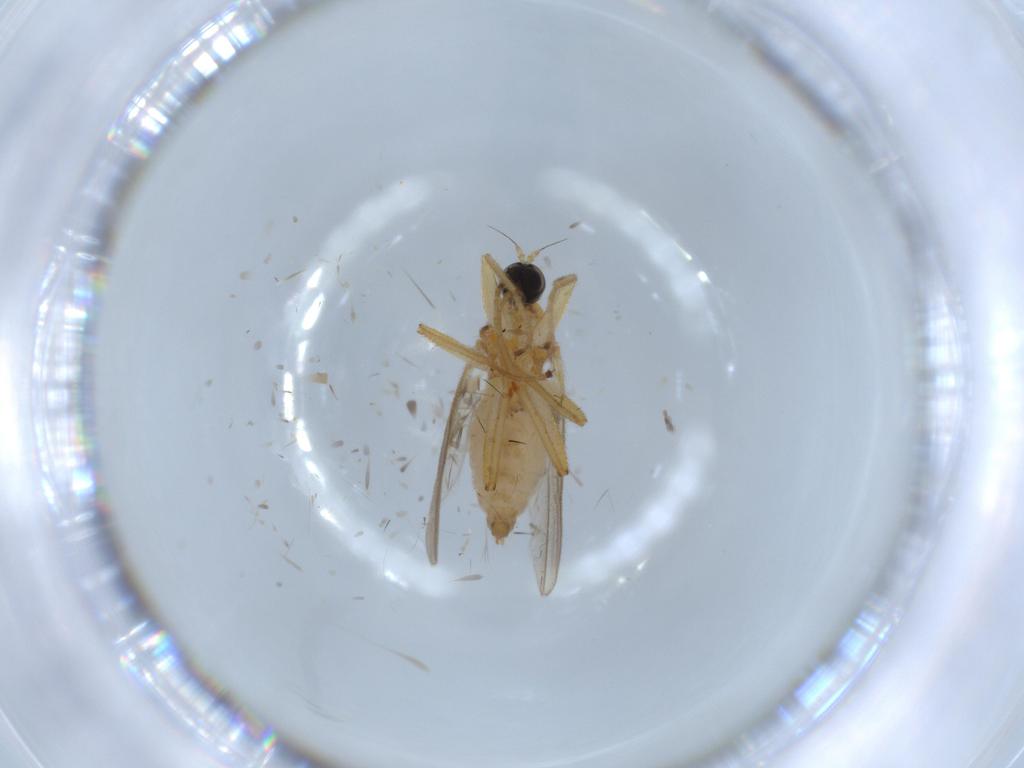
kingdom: Animalia
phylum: Arthropoda
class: Insecta
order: Diptera
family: Hybotidae
